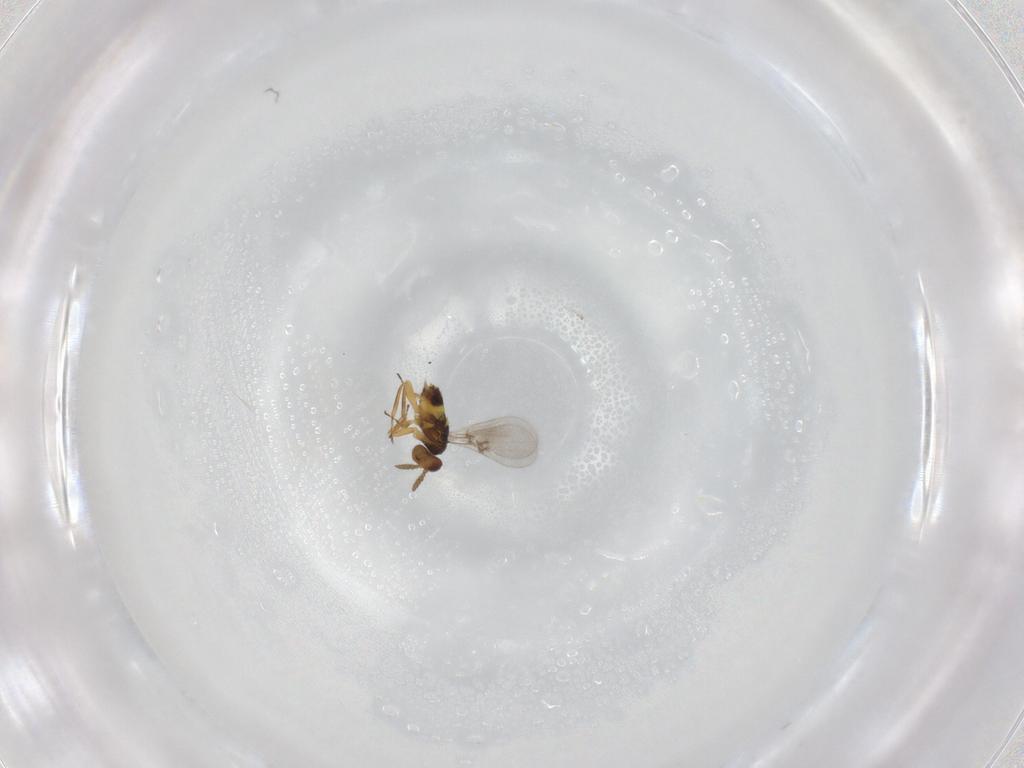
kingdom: Animalia
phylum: Arthropoda
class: Insecta
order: Hymenoptera
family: Eulophidae
